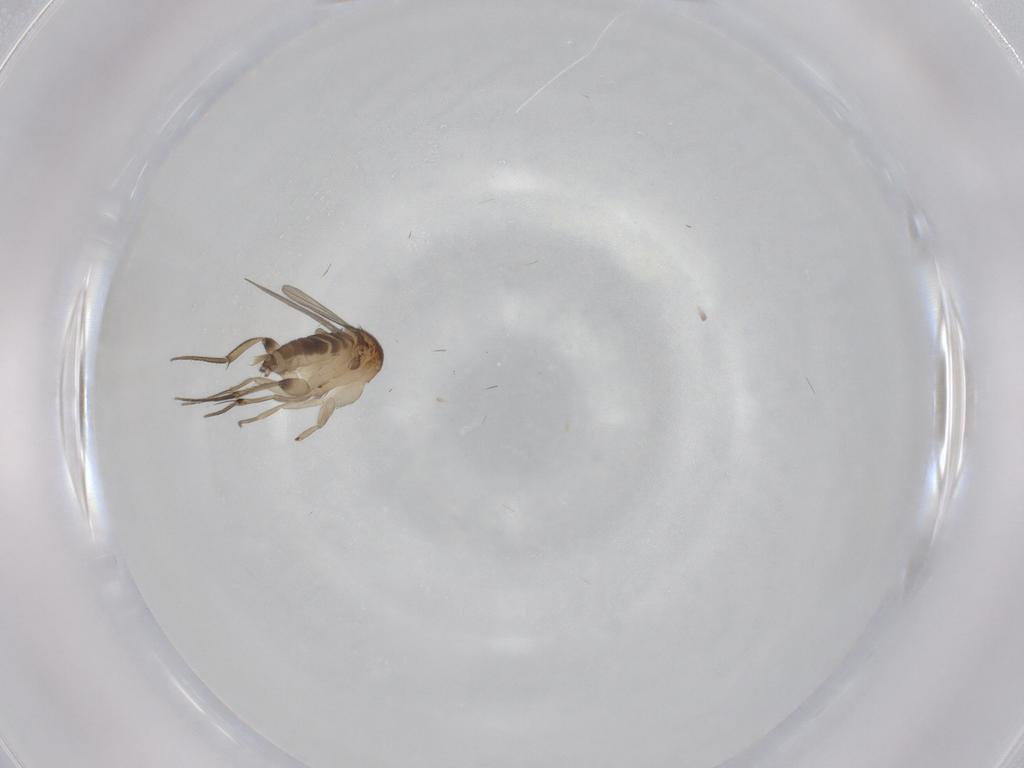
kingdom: Animalia
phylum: Arthropoda
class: Insecta
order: Diptera
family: Phoridae
